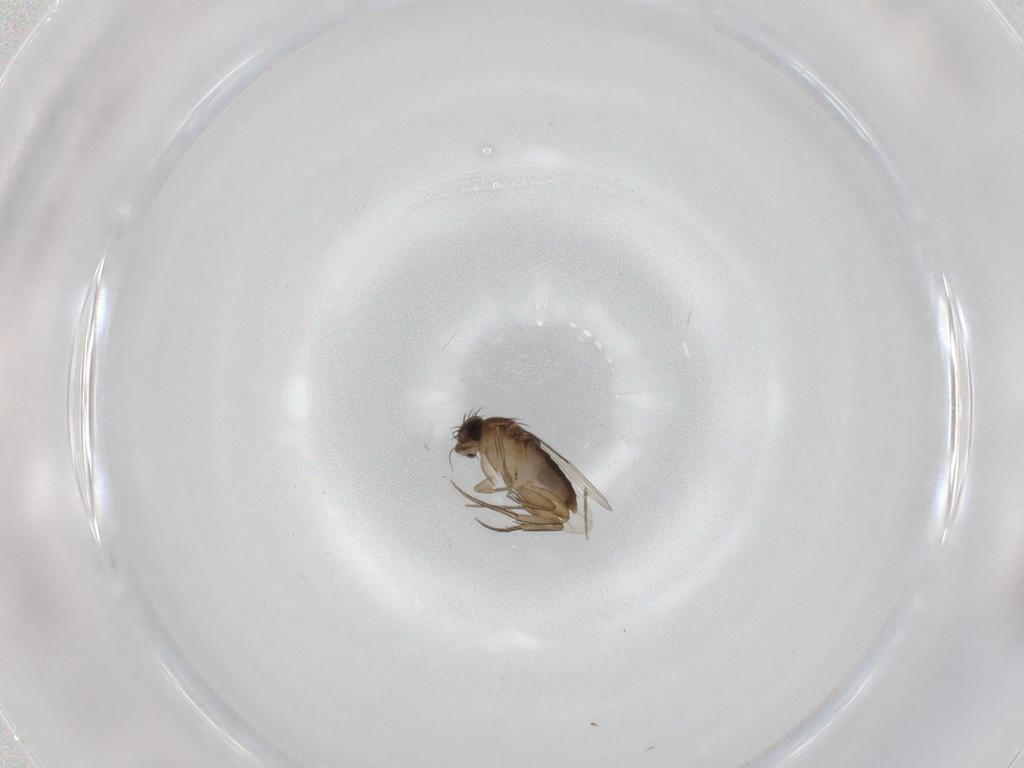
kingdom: Animalia
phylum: Arthropoda
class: Insecta
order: Diptera
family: Phoridae
